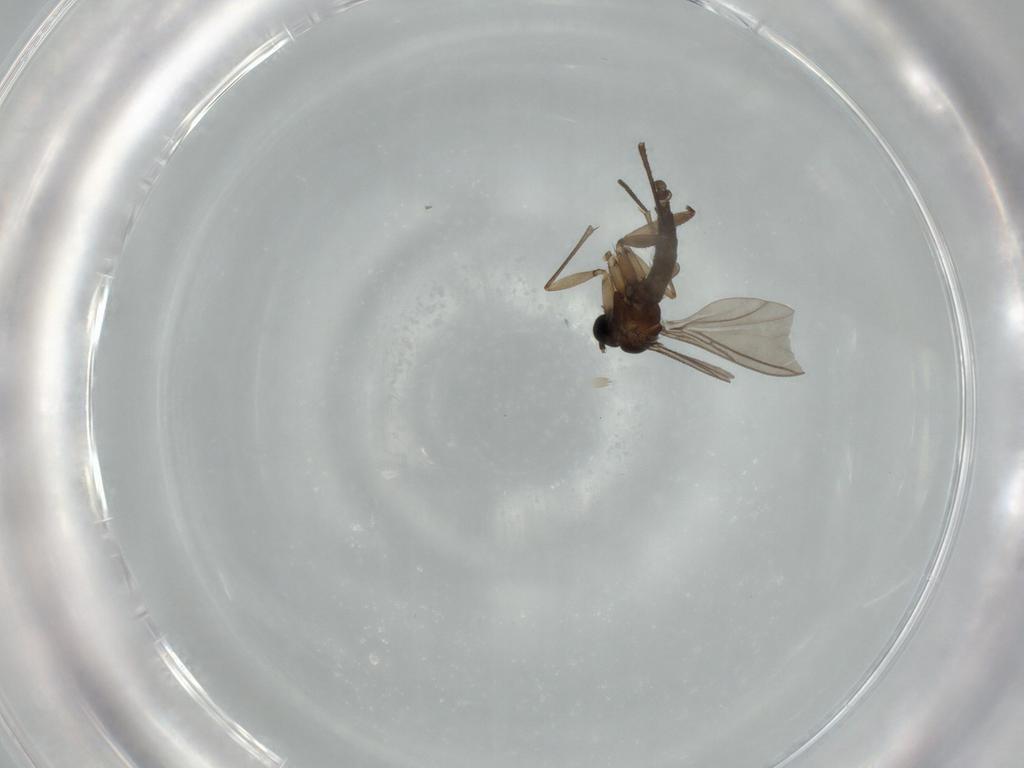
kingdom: Animalia
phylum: Arthropoda
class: Insecta
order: Diptera
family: Sciaridae
